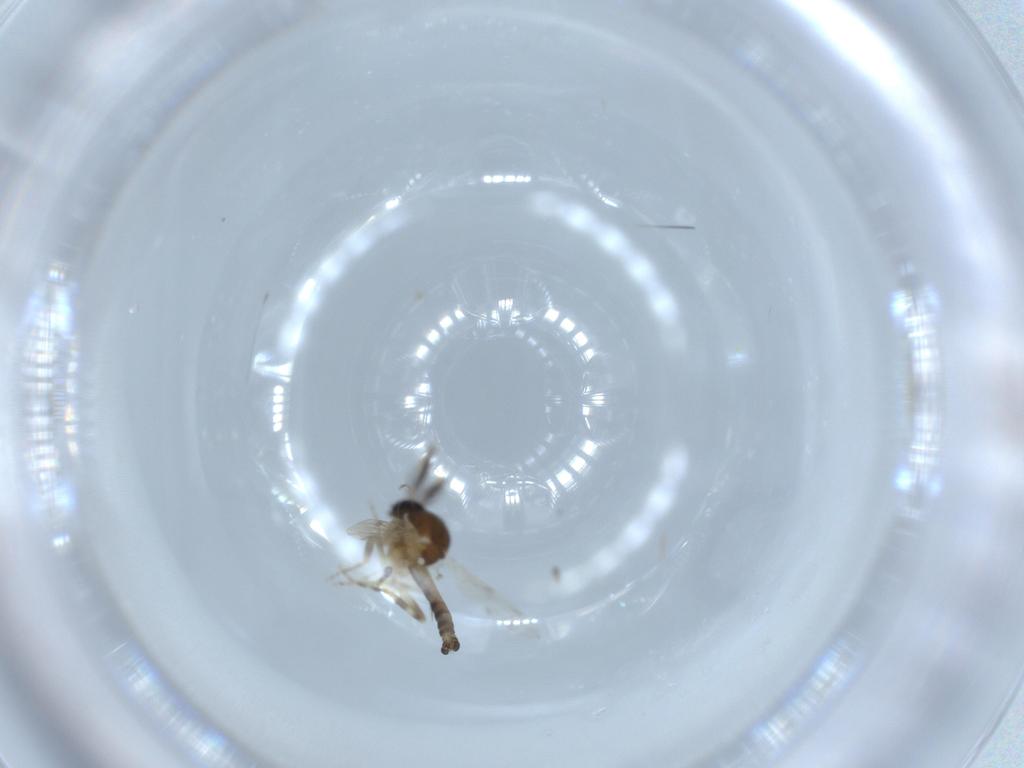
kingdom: Animalia
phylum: Arthropoda
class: Insecta
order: Diptera
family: Ceratopogonidae
